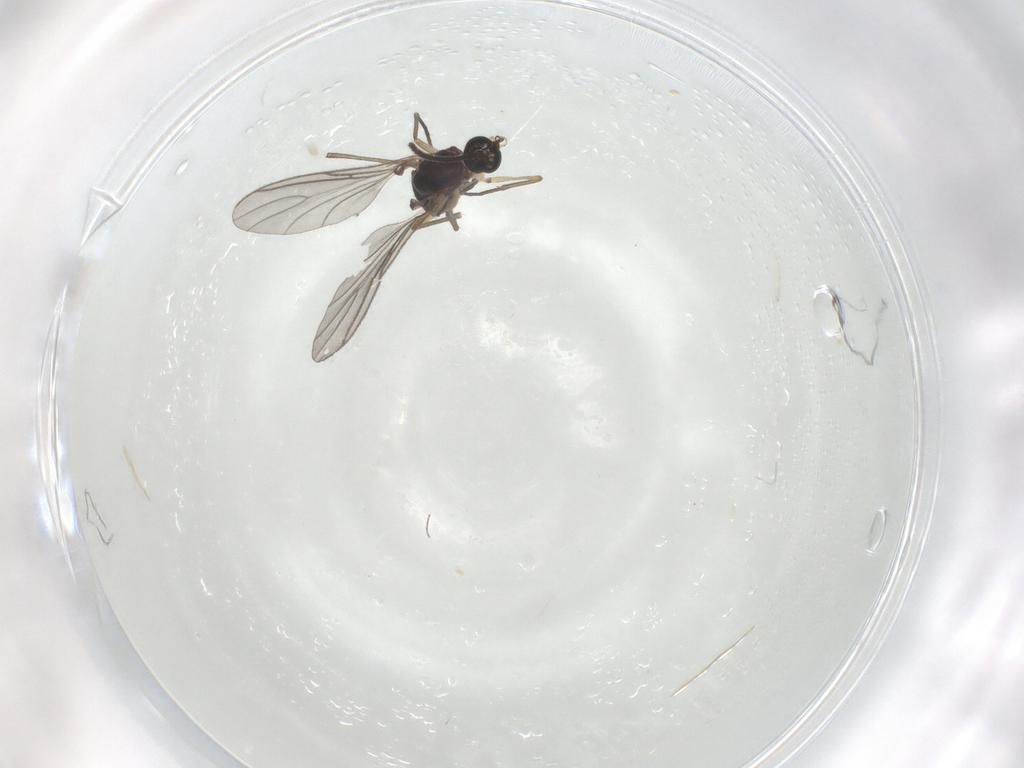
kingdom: Animalia
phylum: Arthropoda
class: Insecta
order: Diptera
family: Sciaridae
